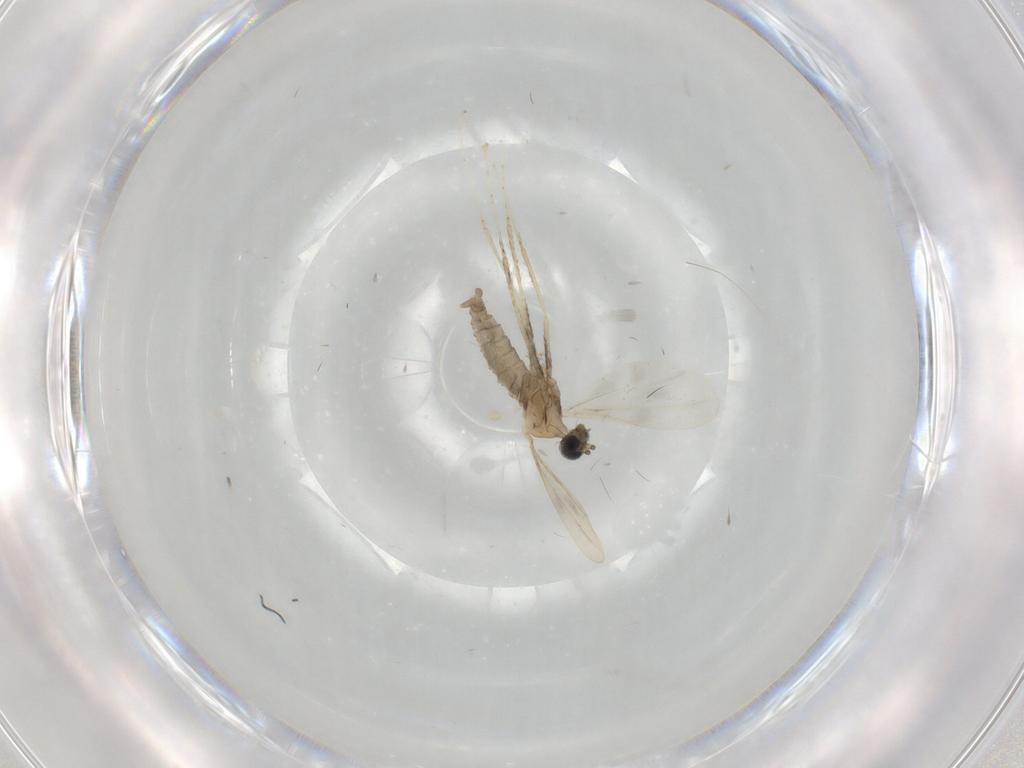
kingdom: Animalia
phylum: Arthropoda
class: Insecta
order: Diptera
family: Cecidomyiidae
